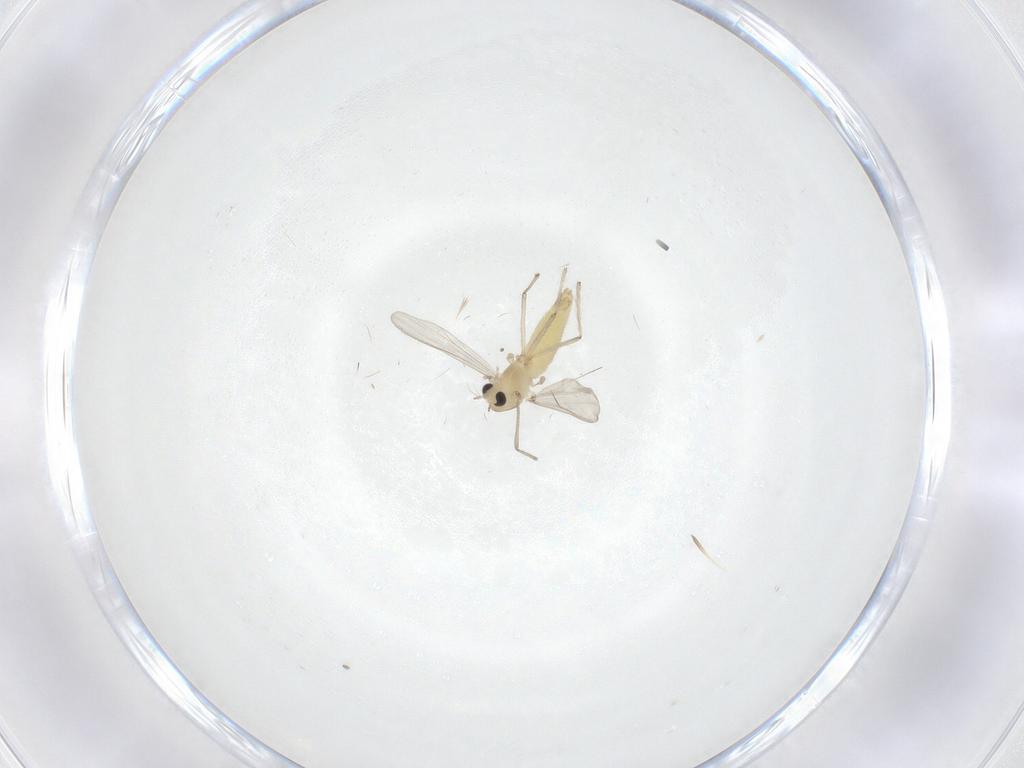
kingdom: Animalia
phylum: Arthropoda
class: Insecta
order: Diptera
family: Chironomidae
